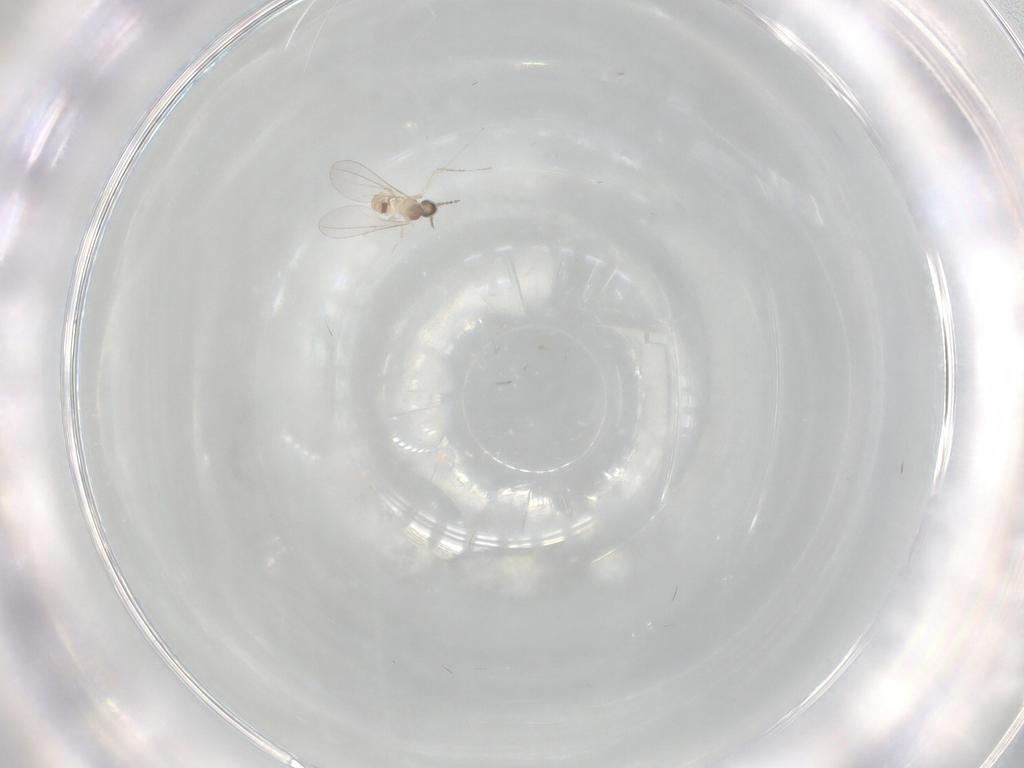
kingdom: Animalia
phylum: Arthropoda
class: Insecta
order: Diptera
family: Cecidomyiidae
